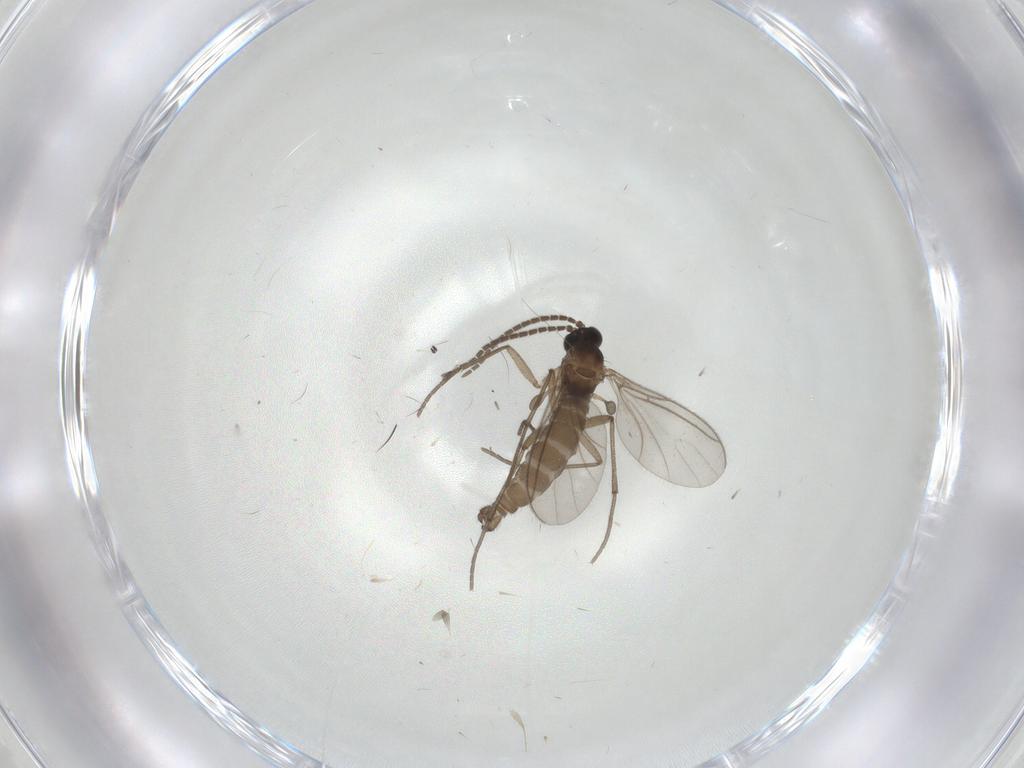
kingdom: Animalia
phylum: Arthropoda
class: Insecta
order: Diptera
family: Sciaridae
